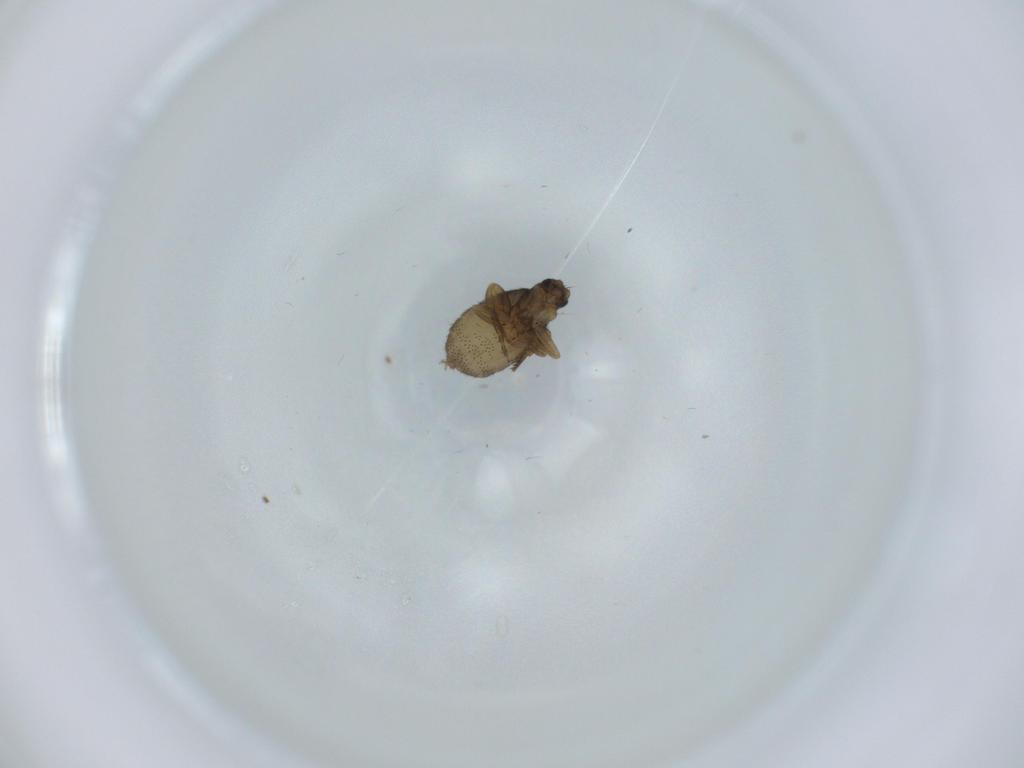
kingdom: Animalia
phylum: Arthropoda
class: Insecta
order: Diptera
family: Phoridae
